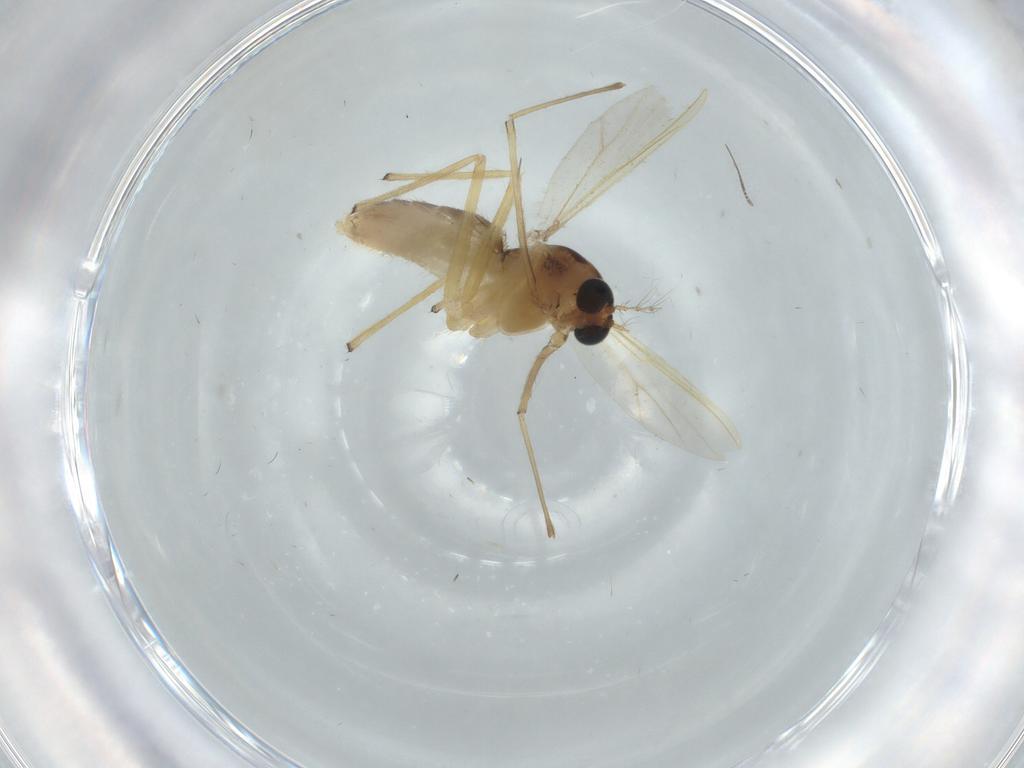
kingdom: Animalia
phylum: Arthropoda
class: Insecta
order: Diptera
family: Chironomidae
